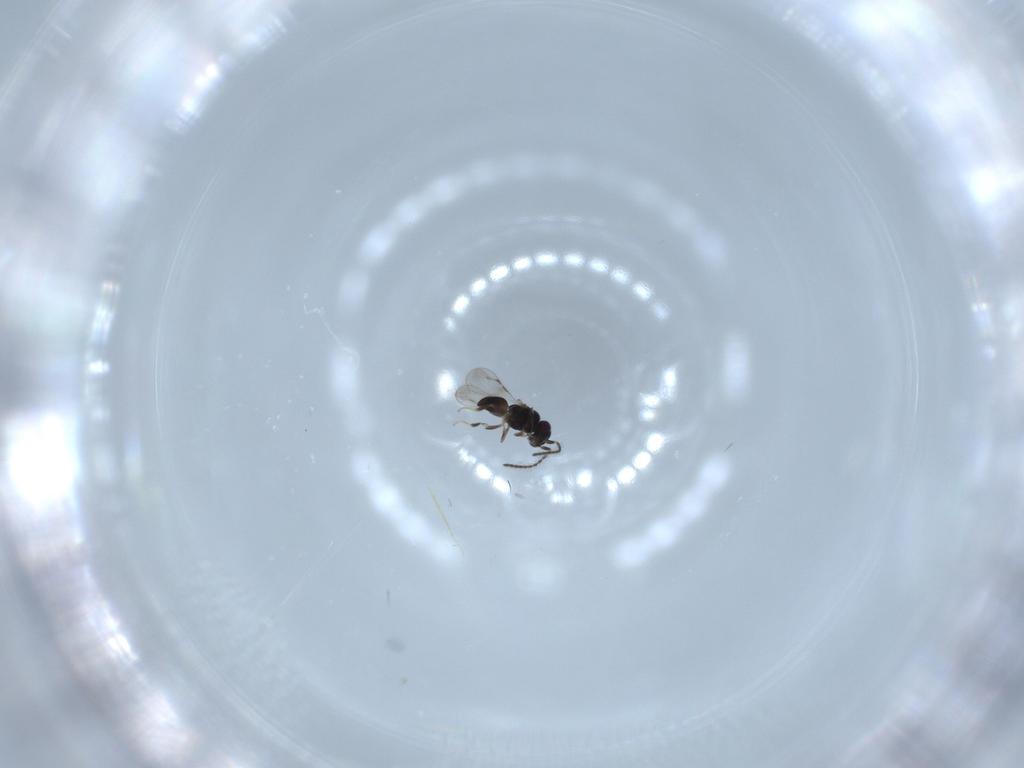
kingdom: Animalia
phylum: Arthropoda
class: Insecta
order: Hymenoptera
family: Ceraphronidae
